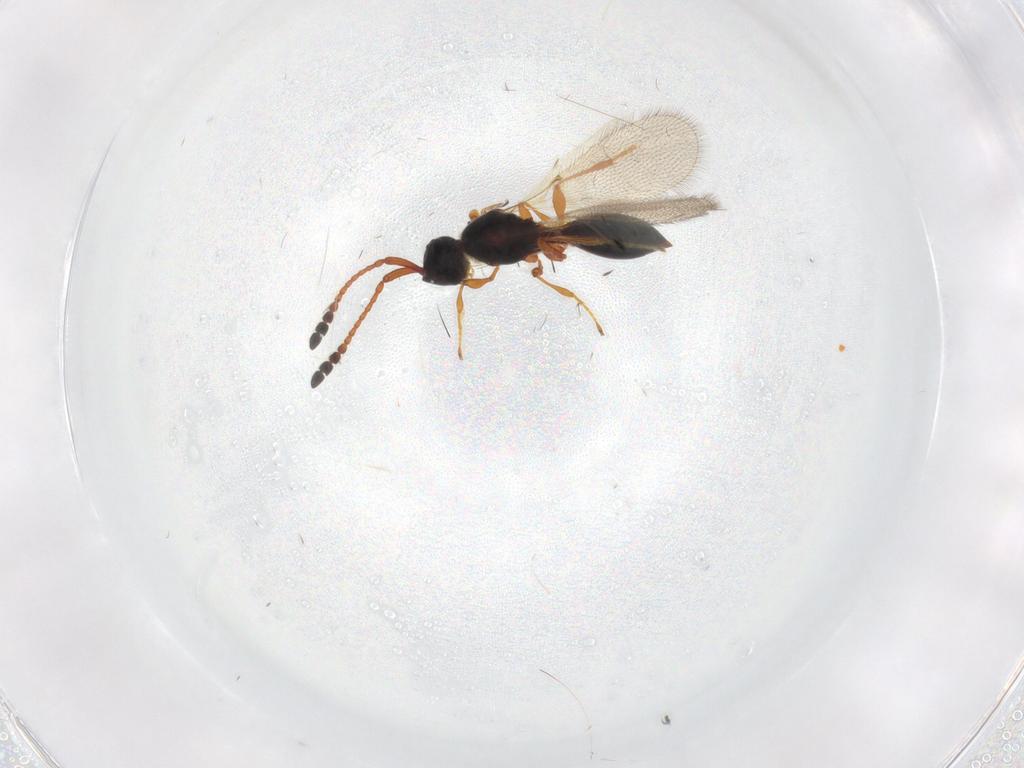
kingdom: Animalia
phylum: Arthropoda
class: Insecta
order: Hymenoptera
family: Diapriidae
